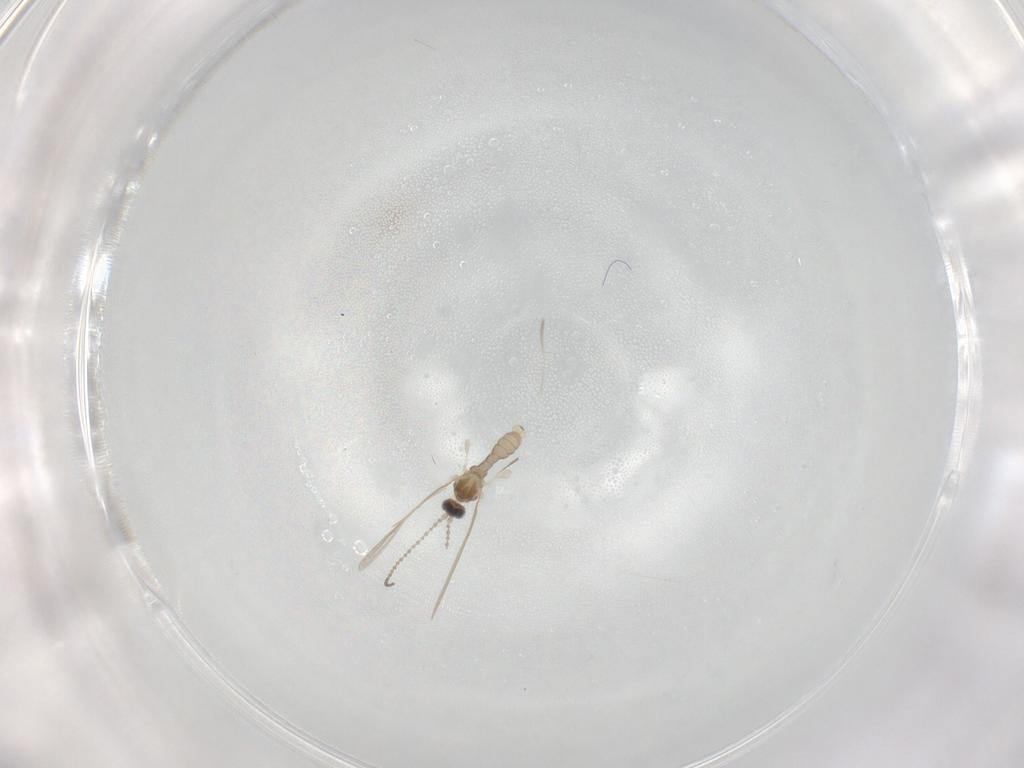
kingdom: Animalia
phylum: Arthropoda
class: Insecta
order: Diptera
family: Cecidomyiidae
